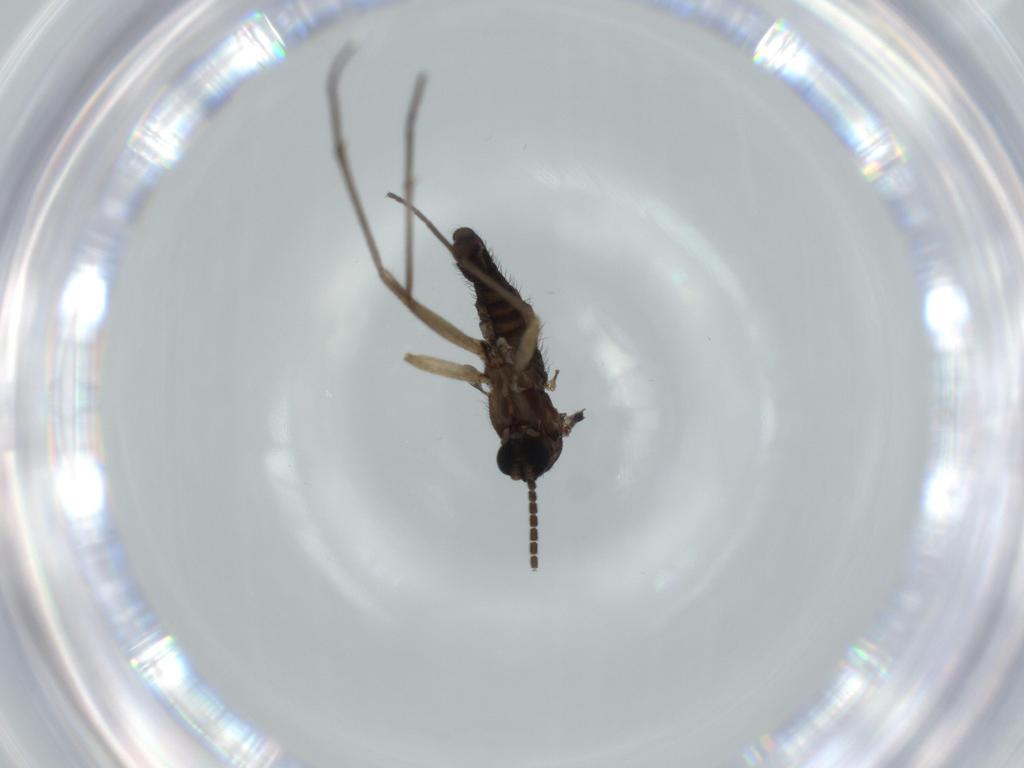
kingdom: Animalia
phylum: Arthropoda
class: Insecta
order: Diptera
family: Sciaridae
